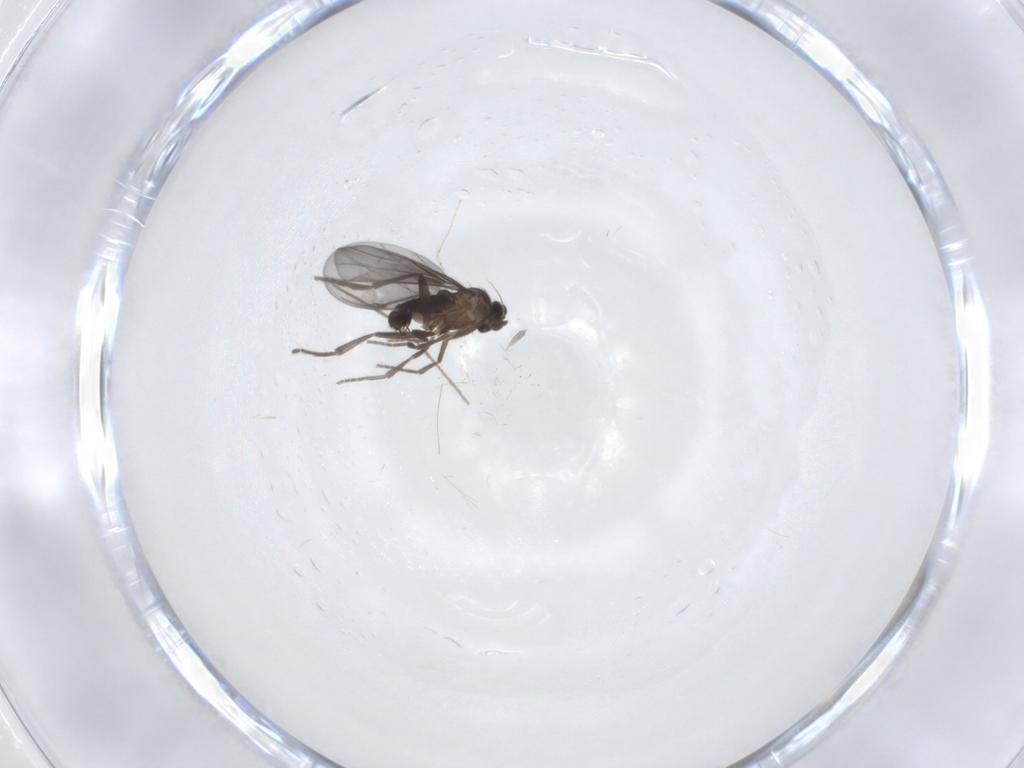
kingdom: Animalia
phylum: Arthropoda
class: Insecta
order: Diptera
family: Cecidomyiidae
